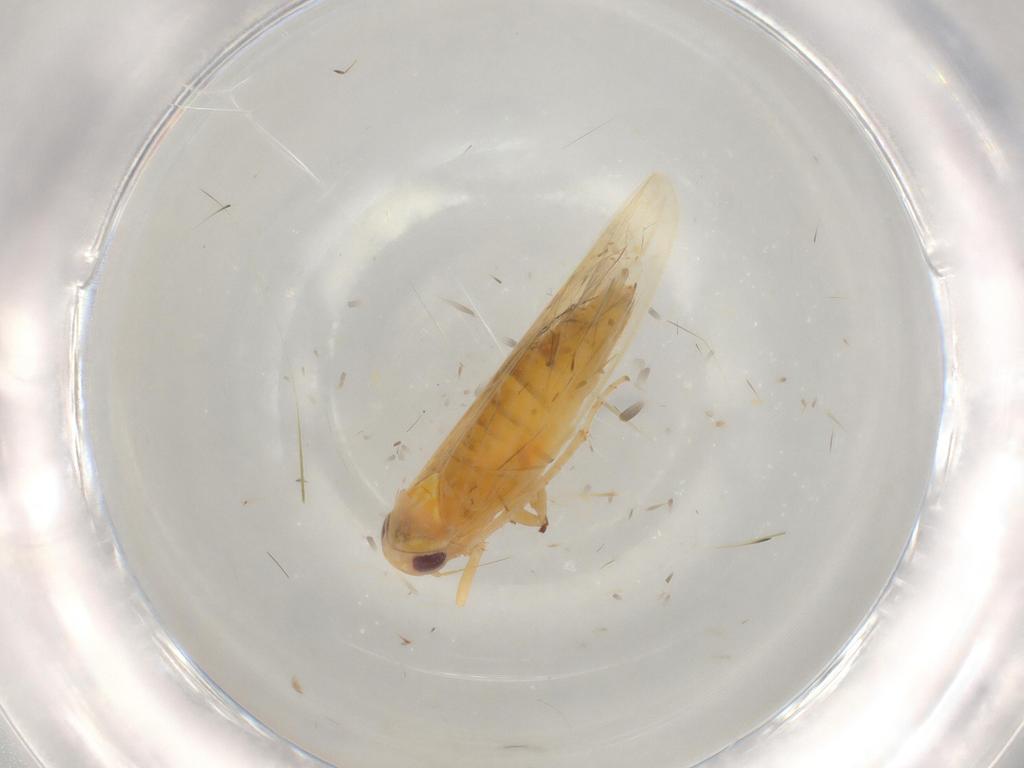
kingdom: Animalia
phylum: Arthropoda
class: Insecta
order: Hemiptera
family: Cicadellidae
